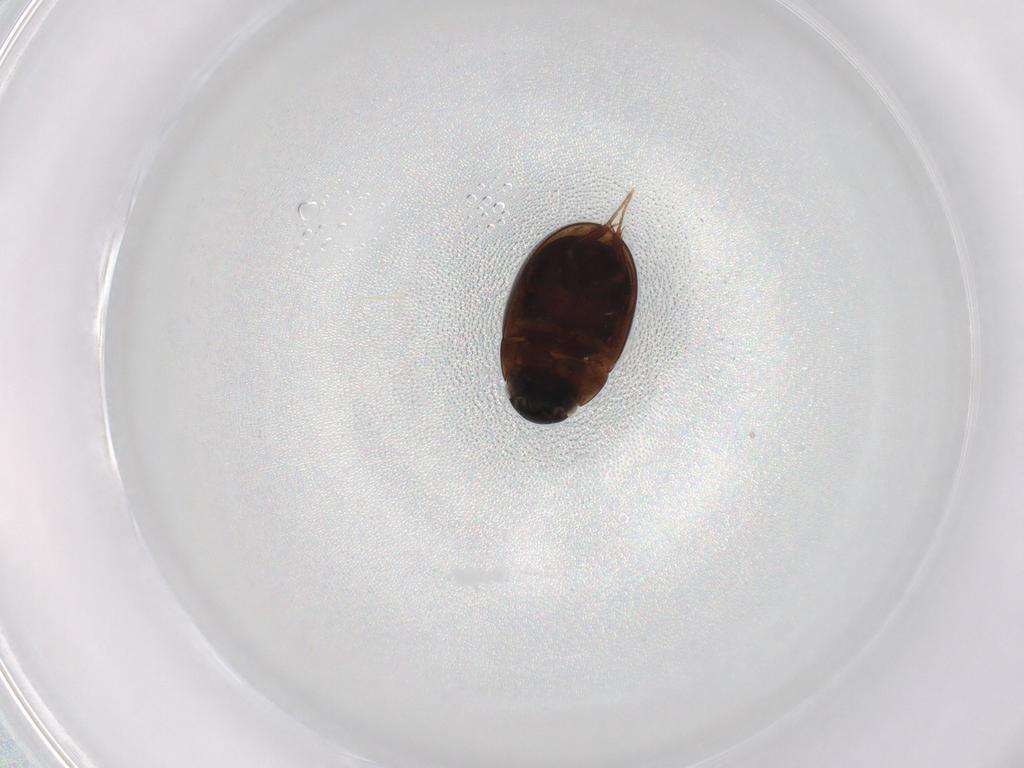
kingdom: Animalia
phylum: Arthropoda
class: Insecta
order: Coleoptera
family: Hydrophilidae
